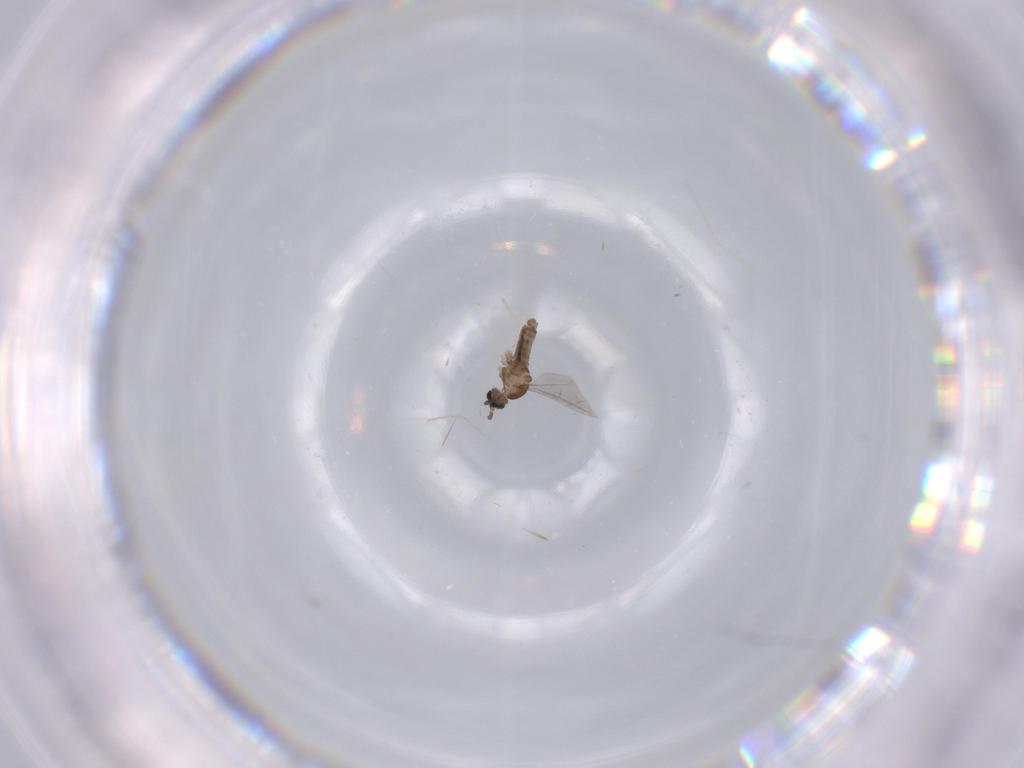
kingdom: Animalia
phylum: Arthropoda
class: Insecta
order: Diptera
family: Cecidomyiidae
